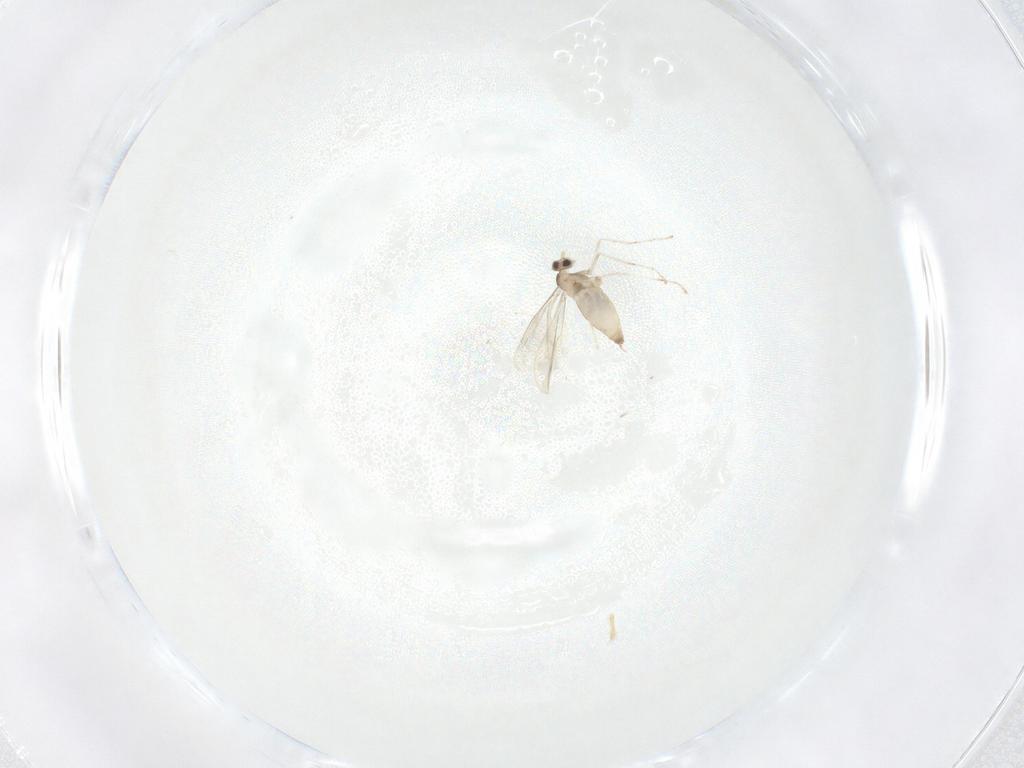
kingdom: Animalia
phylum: Arthropoda
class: Insecta
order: Diptera
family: Cecidomyiidae
